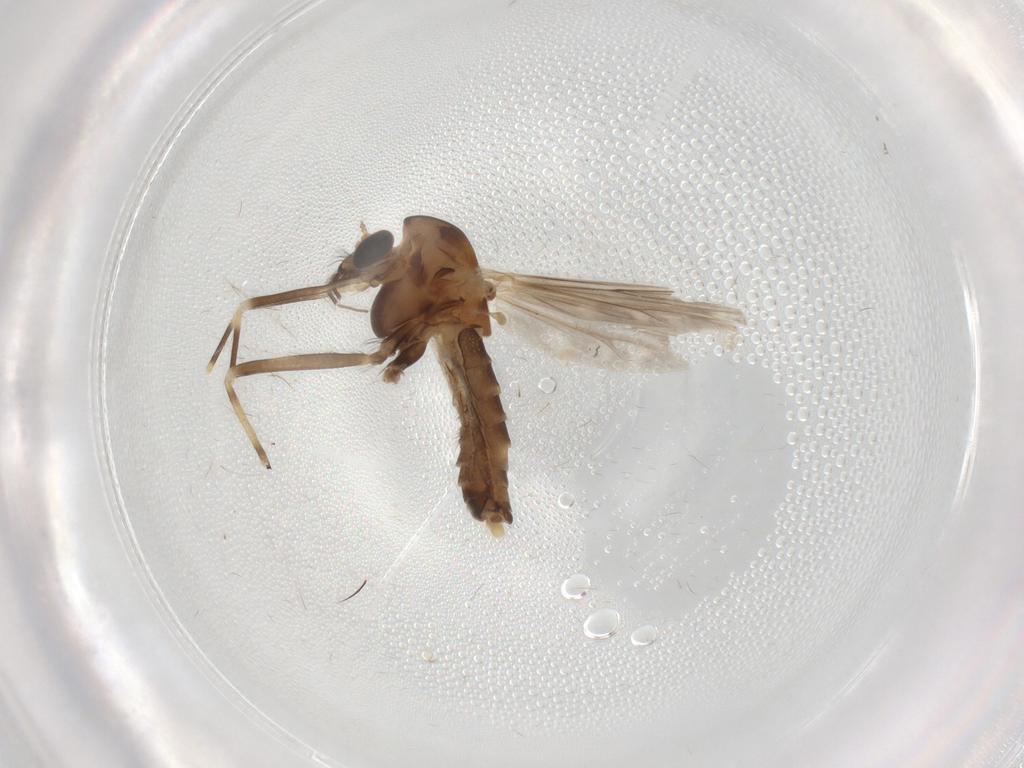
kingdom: Animalia
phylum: Arthropoda
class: Insecta
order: Diptera
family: Chironomidae
